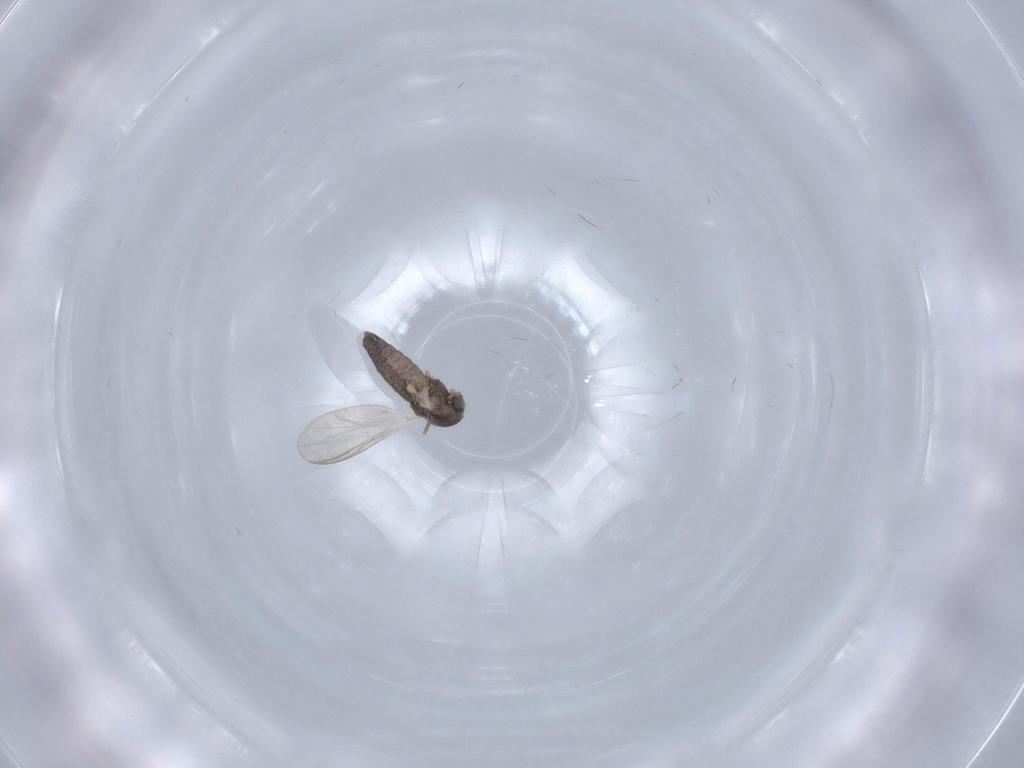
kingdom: Animalia
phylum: Arthropoda
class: Insecta
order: Diptera
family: Chironomidae
